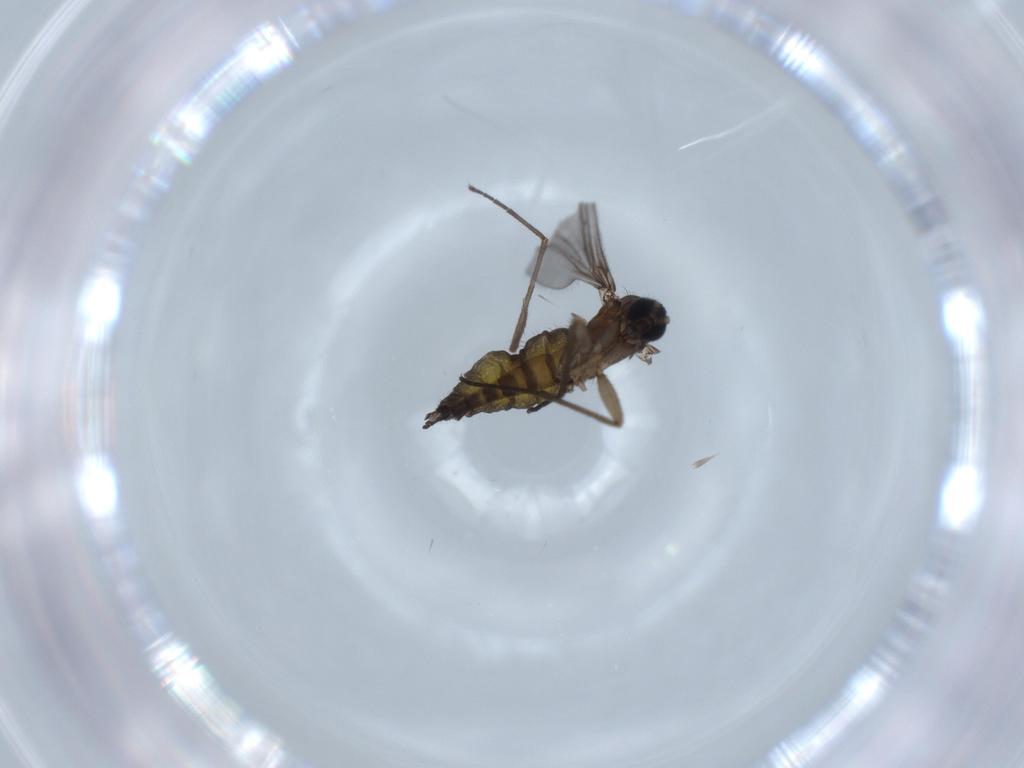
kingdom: Animalia
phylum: Arthropoda
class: Insecta
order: Diptera
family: Sciaridae
